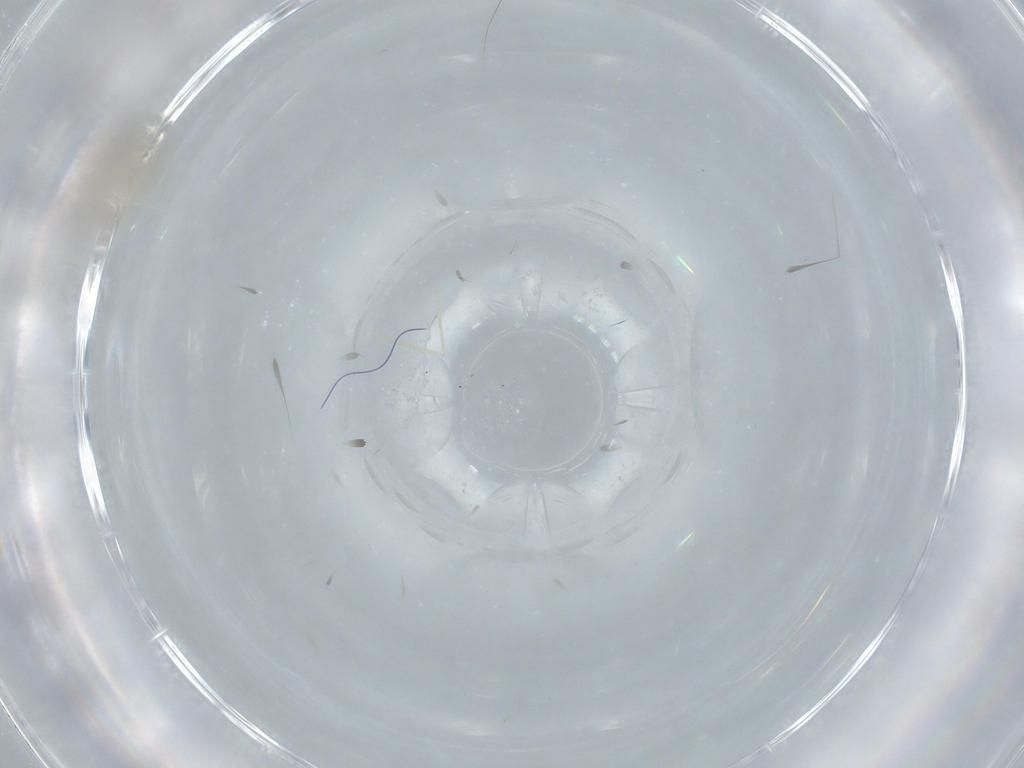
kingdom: Animalia
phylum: Arthropoda
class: Insecta
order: Diptera
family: Cecidomyiidae
